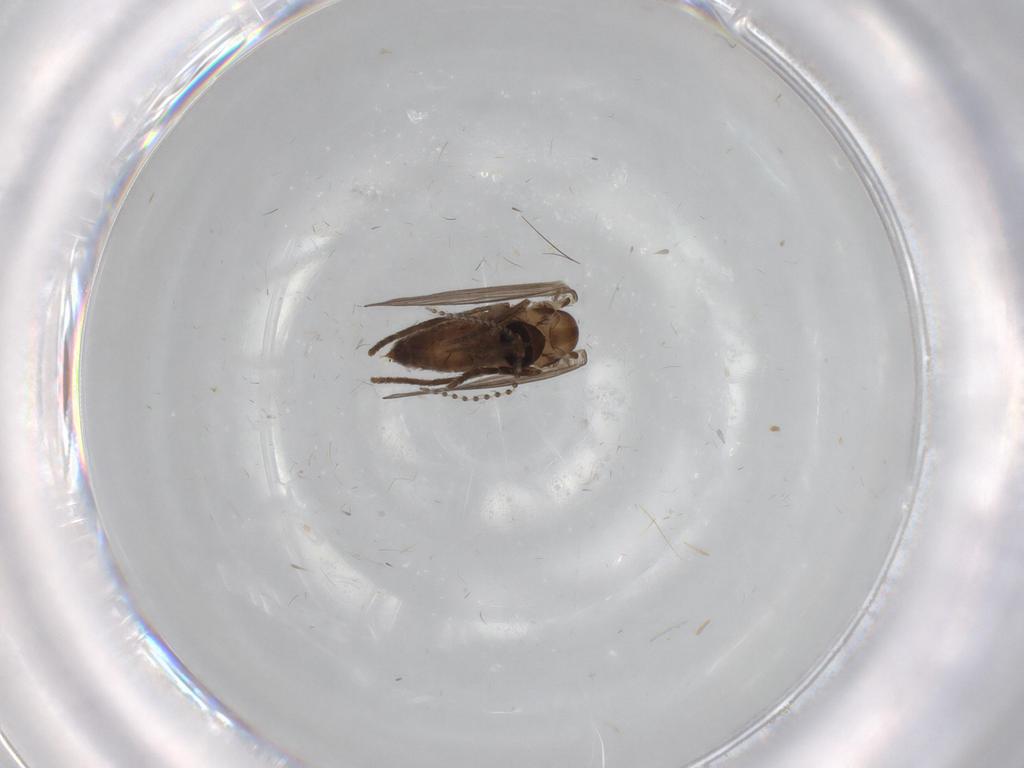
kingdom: Animalia
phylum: Arthropoda
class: Insecta
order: Diptera
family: Psychodidae
